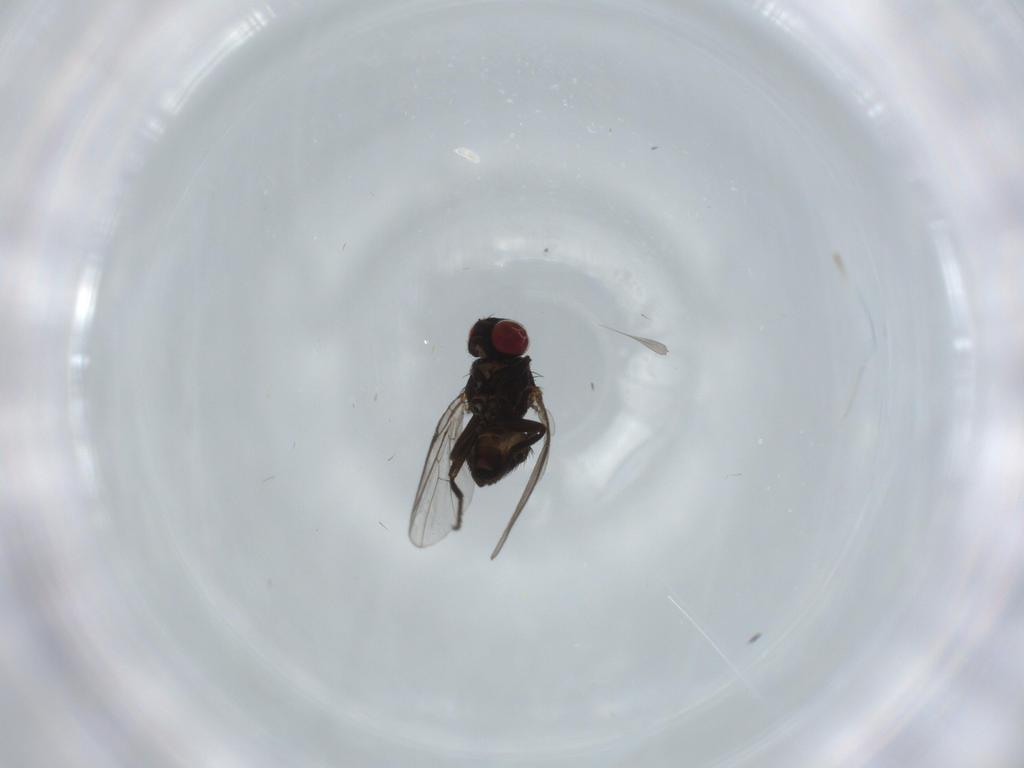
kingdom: Animalia
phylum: Arthropoda
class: Insecta
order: Diptera
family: Agromyzidae
